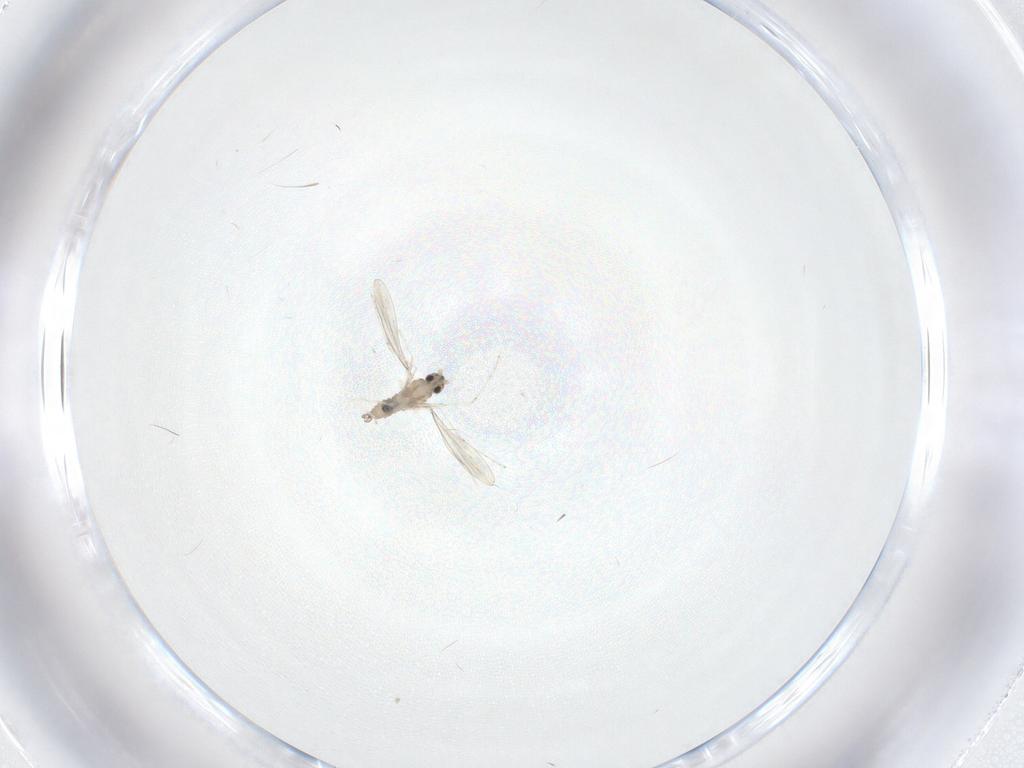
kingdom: Animalia
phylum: Arthropoda
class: Insecta
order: Diptera
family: Cecidomyiidae
